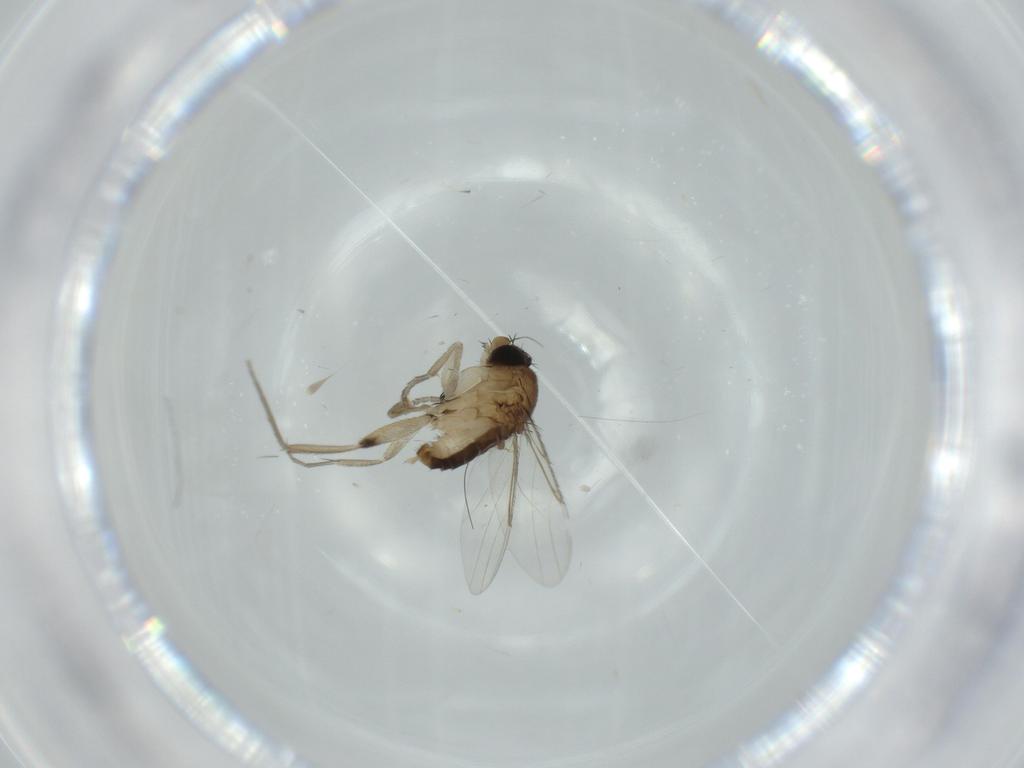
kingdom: Animalia
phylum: Arthropoda
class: Insecta
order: Diptera
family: Phoridae
